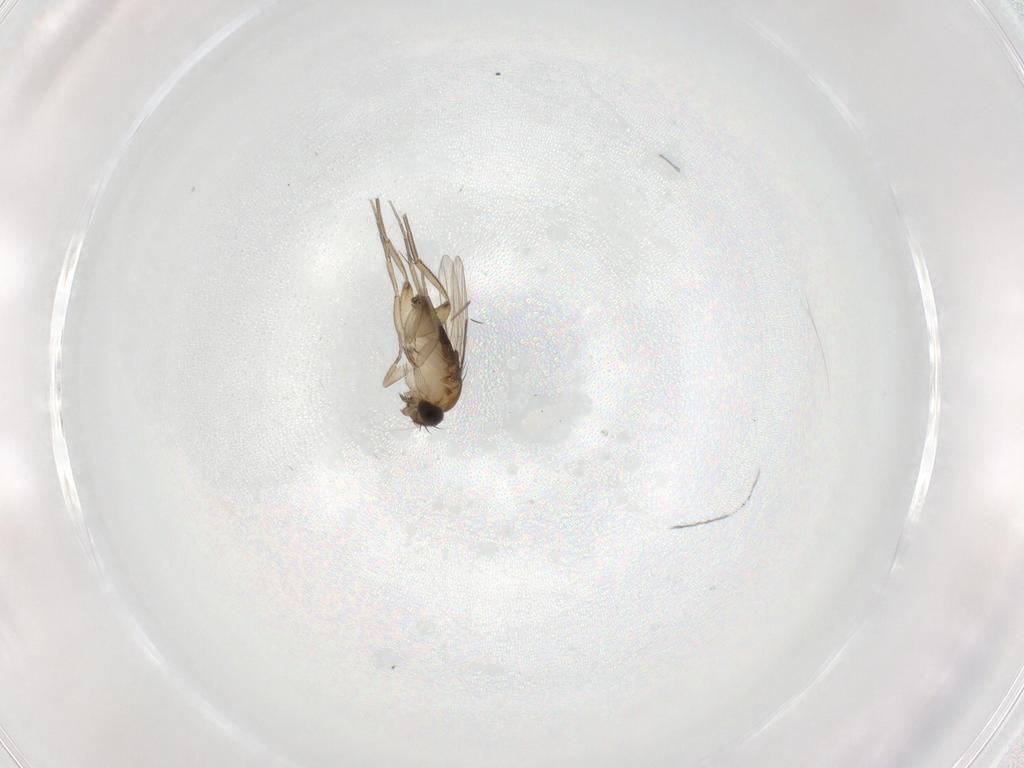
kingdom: Animalia
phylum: Arthropoda
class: Insecta
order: Diptera
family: Phoridae
